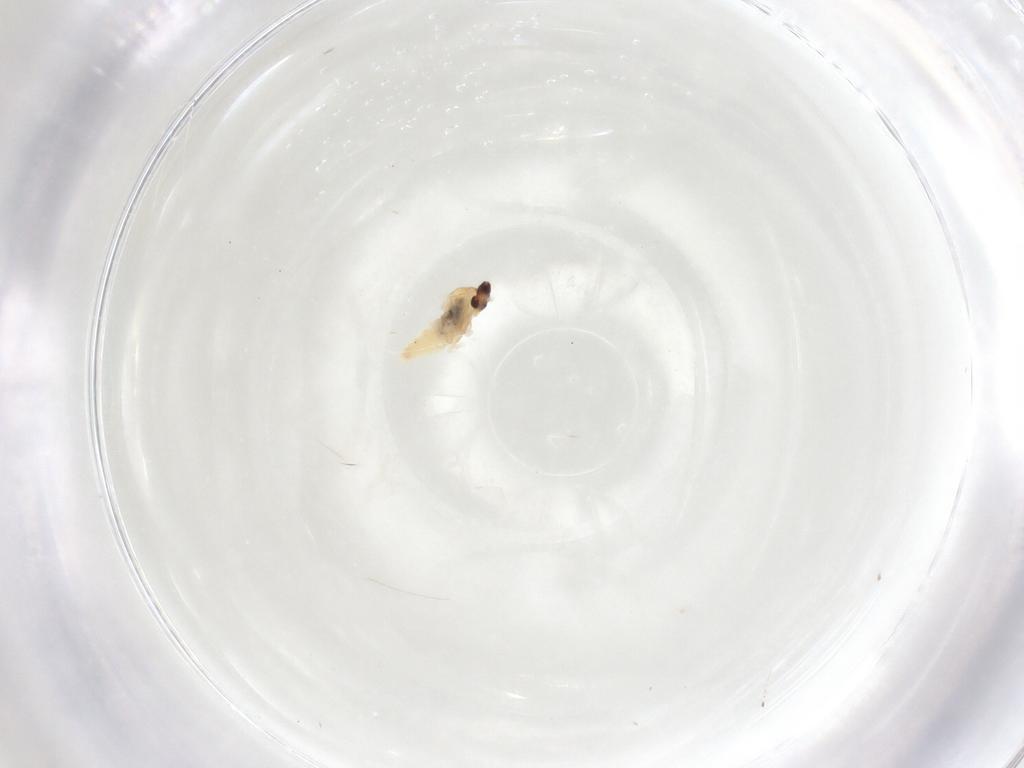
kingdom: Animalia
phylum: Arthropoda
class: Insecta
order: Diptera
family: Cecidomyiidae
